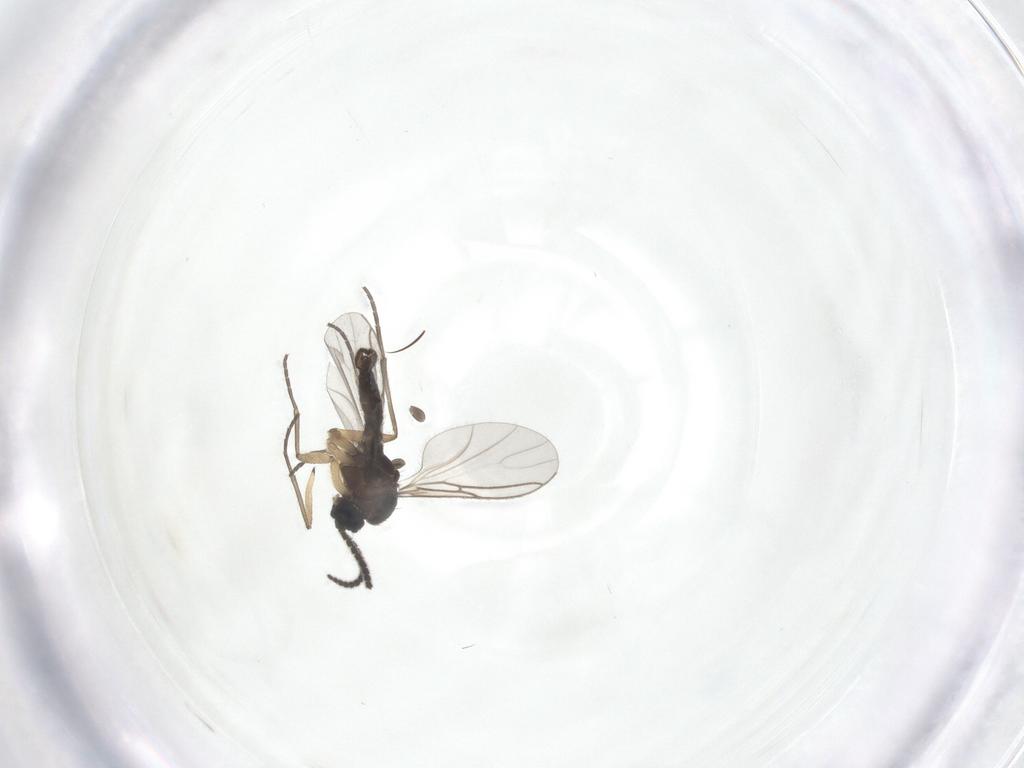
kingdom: Animalia
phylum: Arthropoda
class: Insecta
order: Diptera
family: Sciaridae
